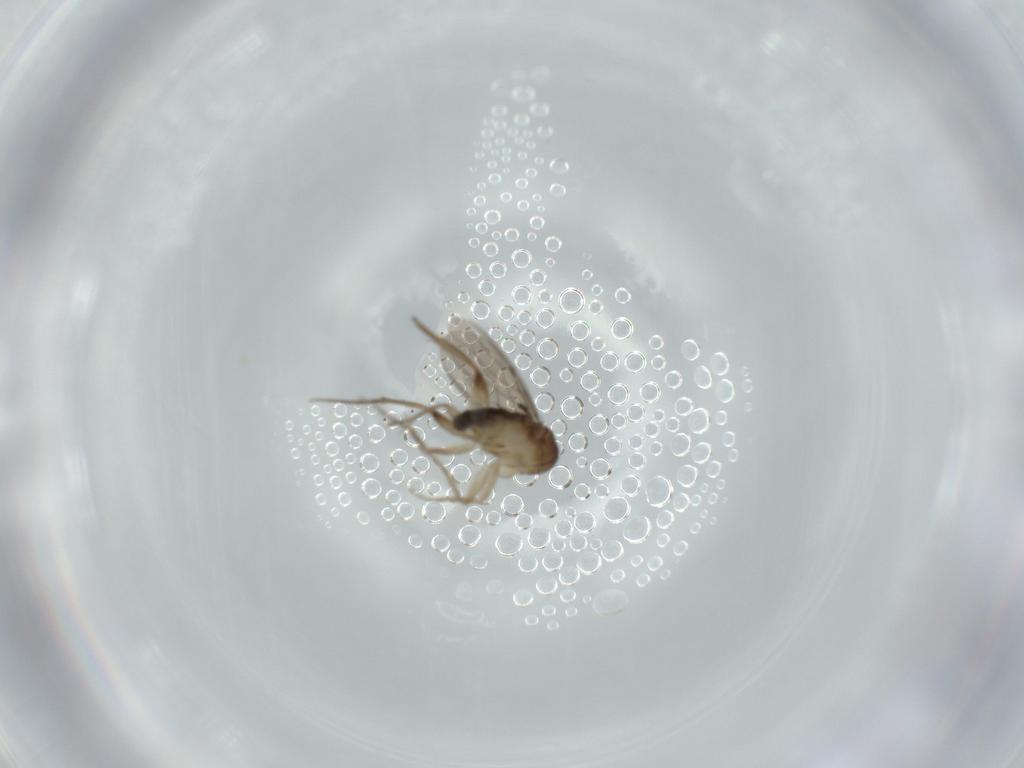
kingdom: Animalia
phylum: Arthropoda
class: Insecta
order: Diptera
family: Phoridae
